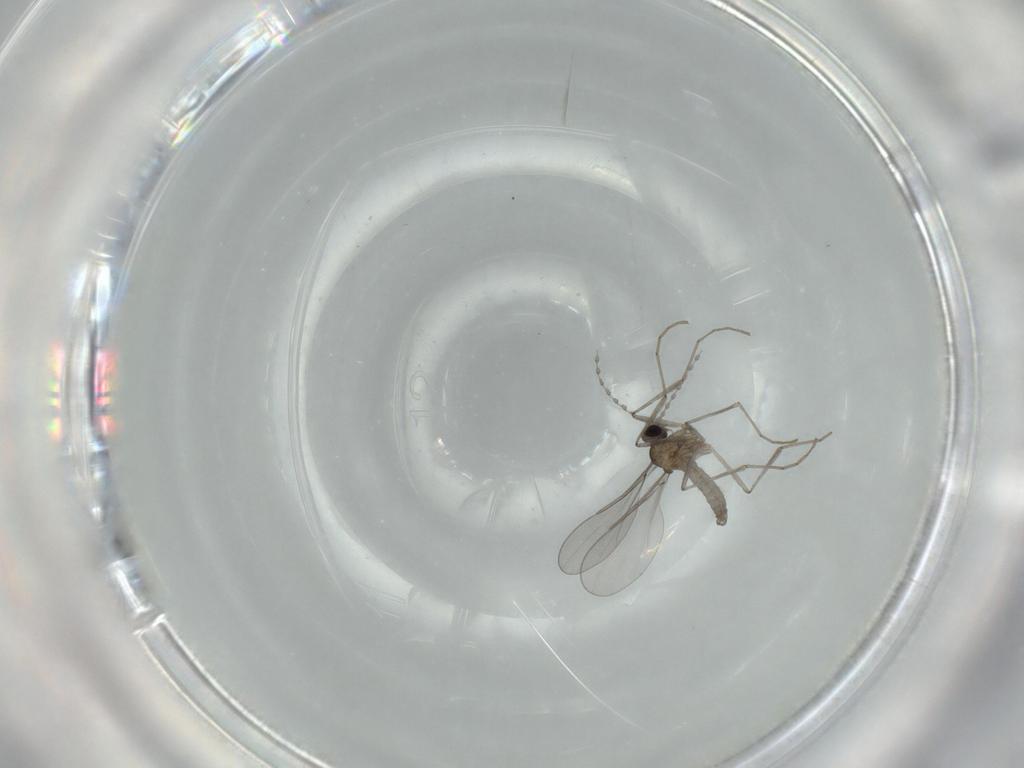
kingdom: Animalia
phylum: Arthropoda
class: Insecta
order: Diptera
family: Cecidomyiidae
